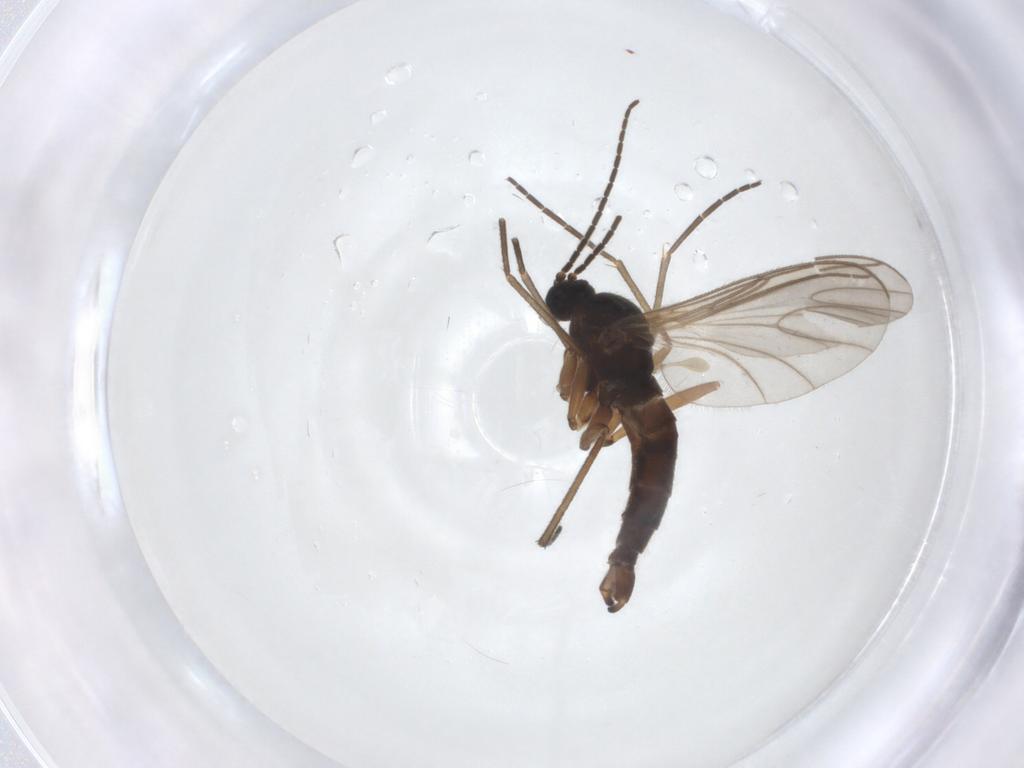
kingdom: Animalia
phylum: Arthropoda
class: Insecta
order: Diptera
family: Sciaridae
